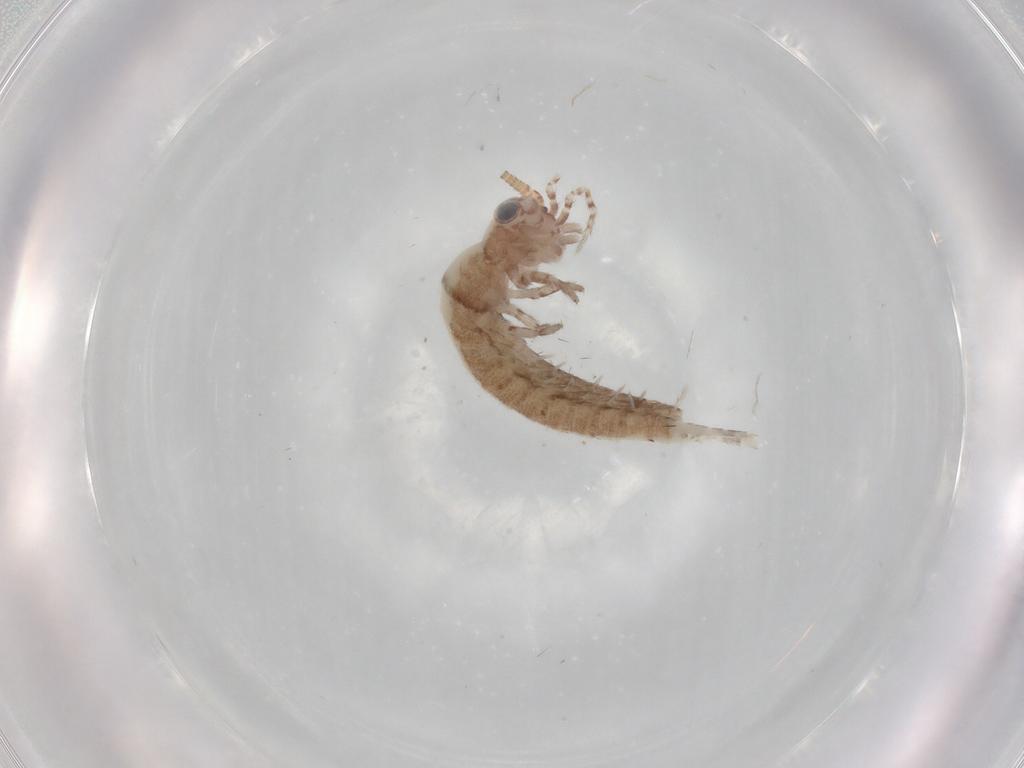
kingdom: Animalia
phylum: Arthropoda
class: Insecta
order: Archaeognatha
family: Machilidae
